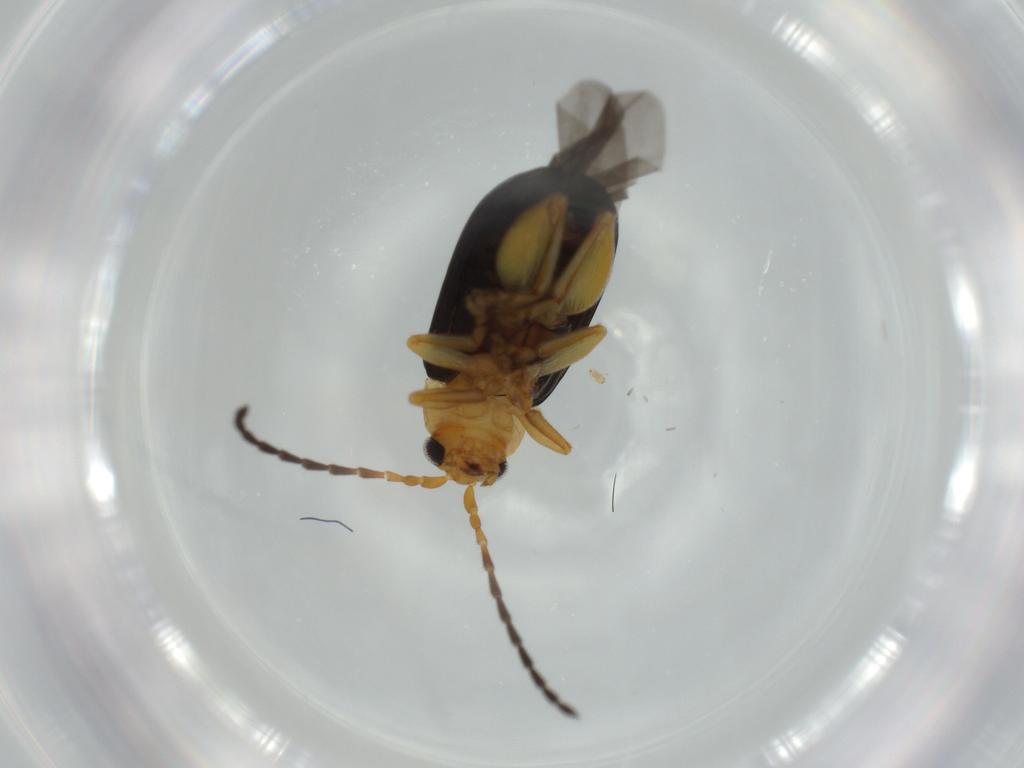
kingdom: Animalia
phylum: Arthropoda
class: Insecta
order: Coleoptera
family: Chrysomelidae
